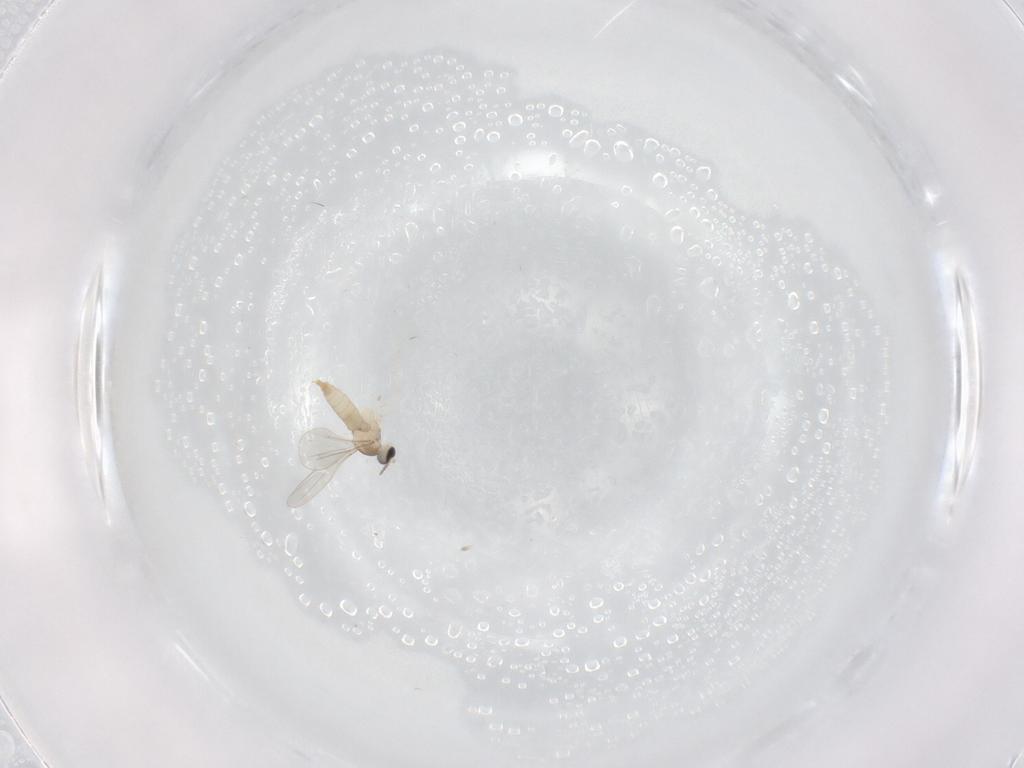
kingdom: Animalia
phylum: Arthropoda
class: Insecta
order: Diptera
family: Cecidomyiidae
